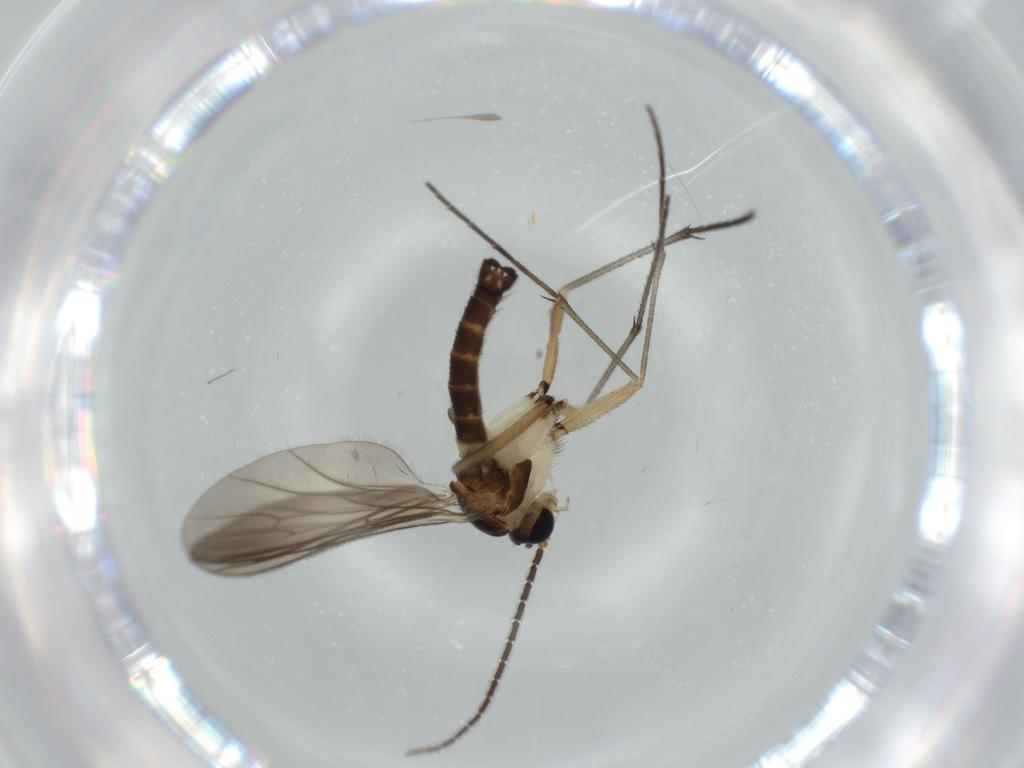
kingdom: Animalia
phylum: Arthropoda
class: Insecta
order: Diptera
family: Sciaridae
